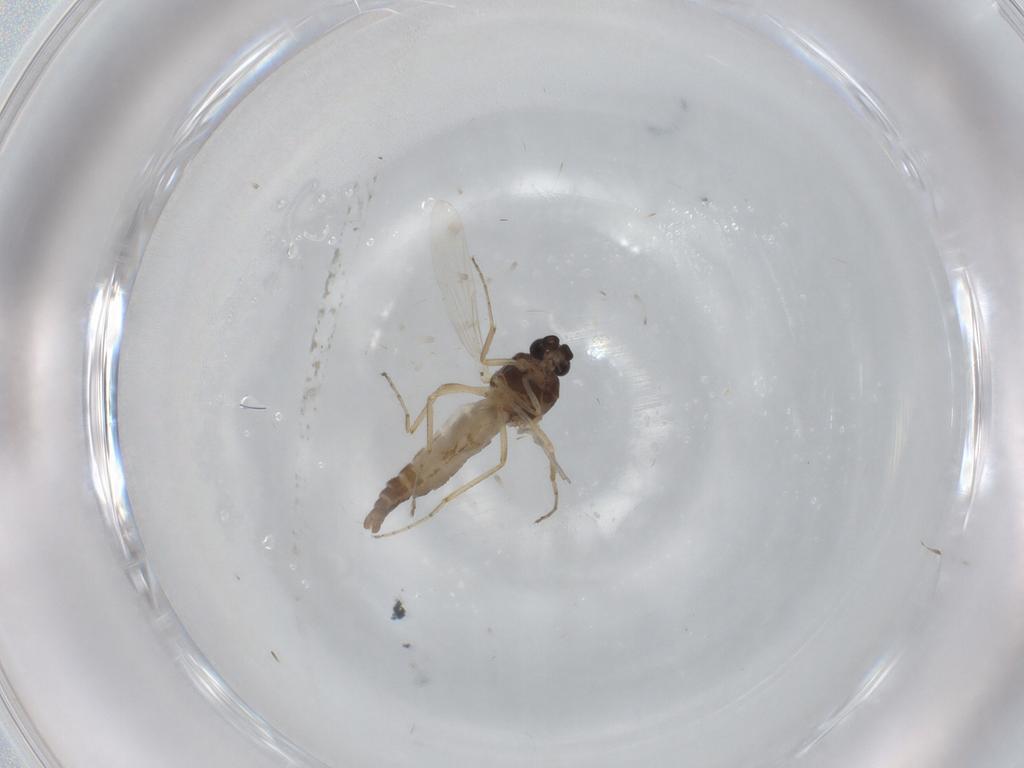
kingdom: Animalia
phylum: Arthropoda
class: Insecta
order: Diptera
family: Ceratopogonidae
